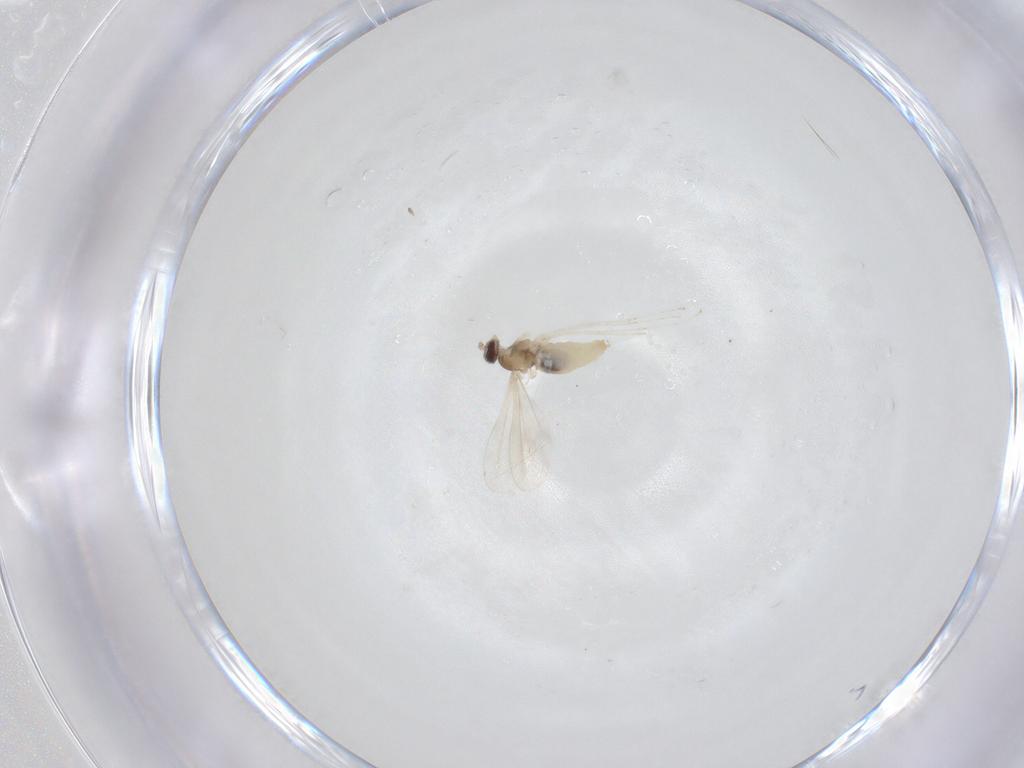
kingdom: Animalia
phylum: Arthropoda
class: Insecta
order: Diptera
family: Cecidomyiidae
